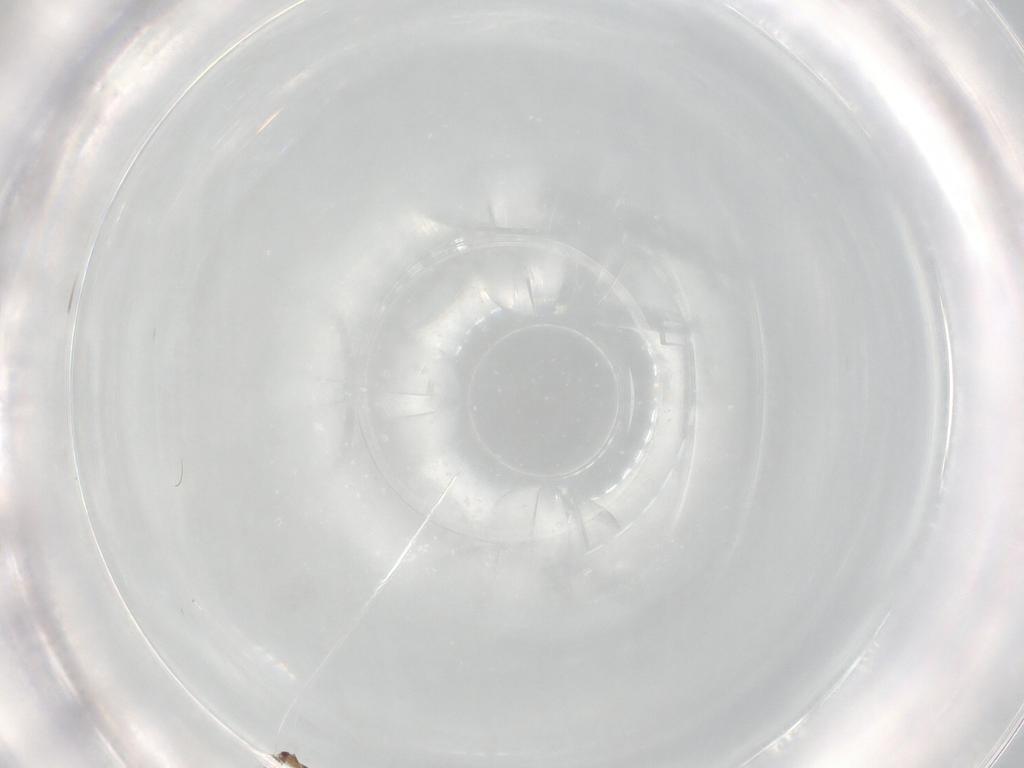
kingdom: Animalia
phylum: Arthropoda
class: Insecta
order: Lepidoptera
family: Geometridae
